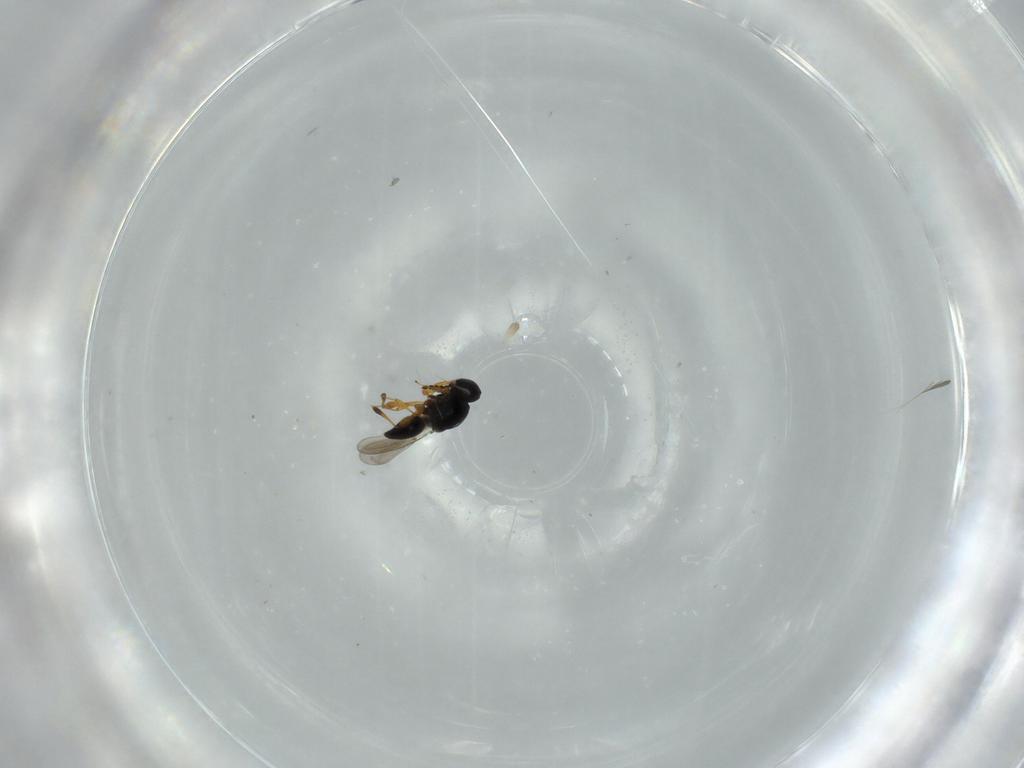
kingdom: Animalia
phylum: Arthropoda
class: Insecta
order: Hymenoptera
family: Platygastridae
